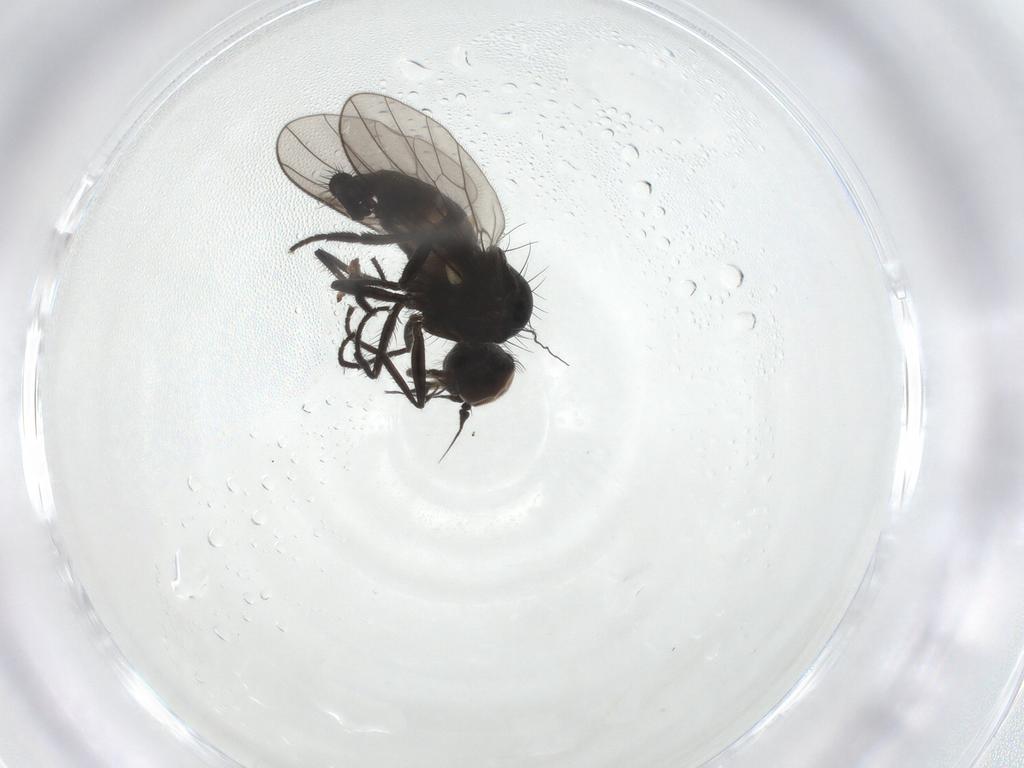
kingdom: Animalia
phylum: Arthropoda
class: Insecta
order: Diptera
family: Dolichopodidae
